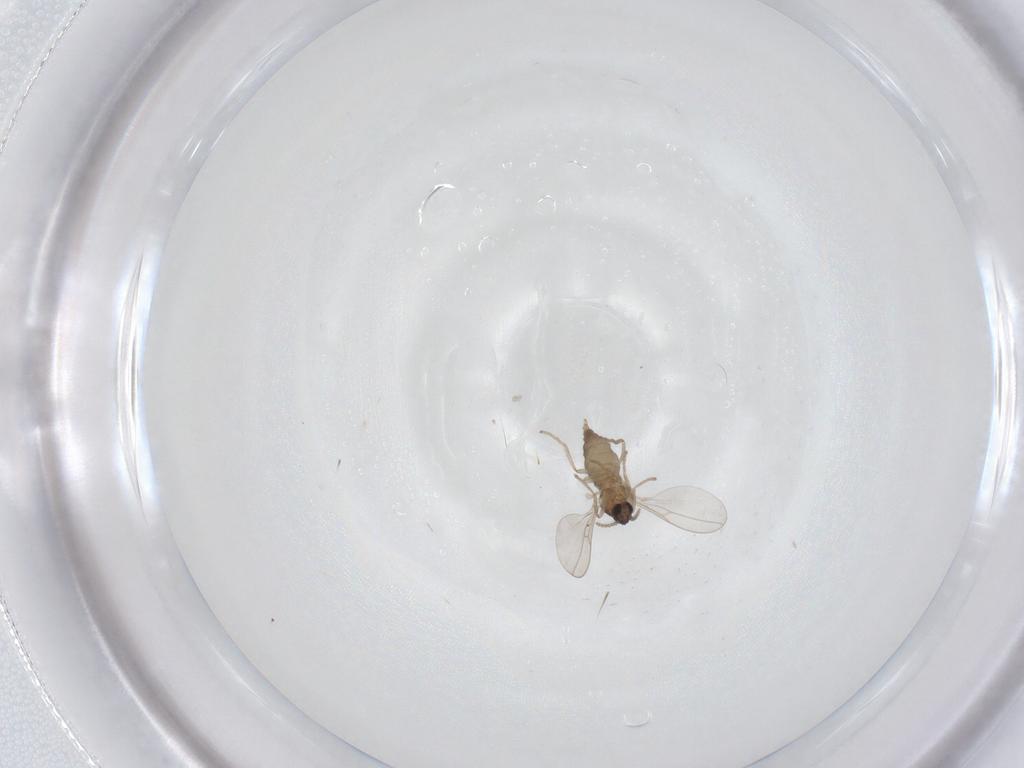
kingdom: Animalia
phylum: Arthropoda
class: Insecta
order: Diptera
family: Cecidomyiidae
